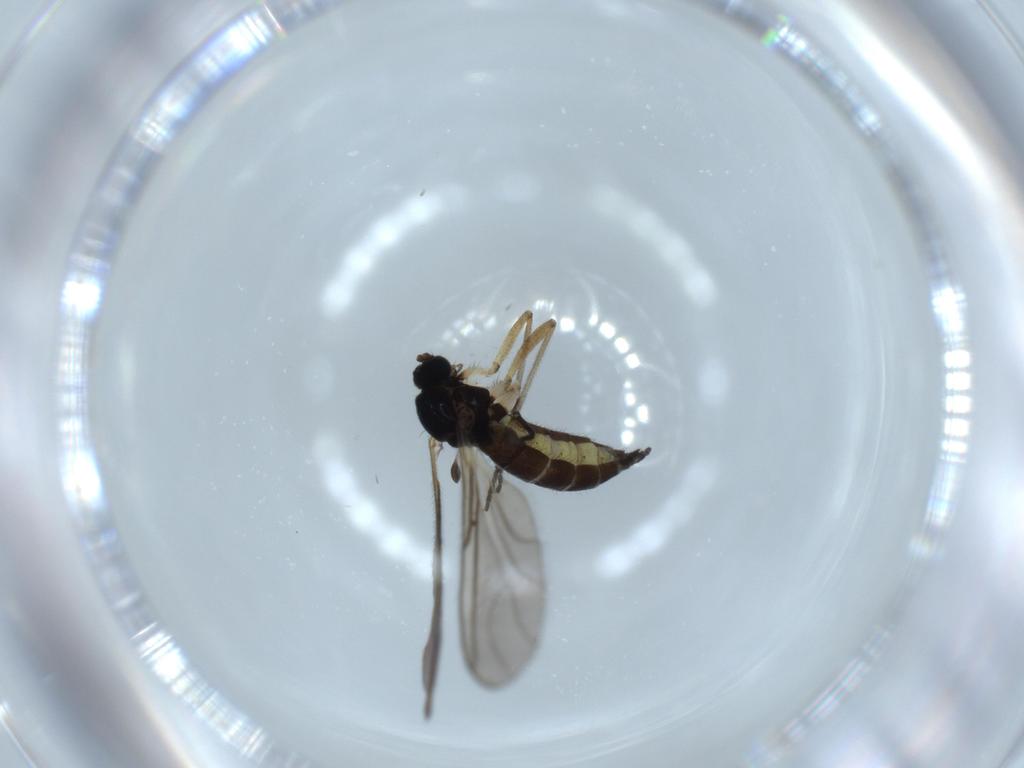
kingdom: Animalia
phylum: Arthropoda
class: Insecta
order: Diptera
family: Sciaridae
